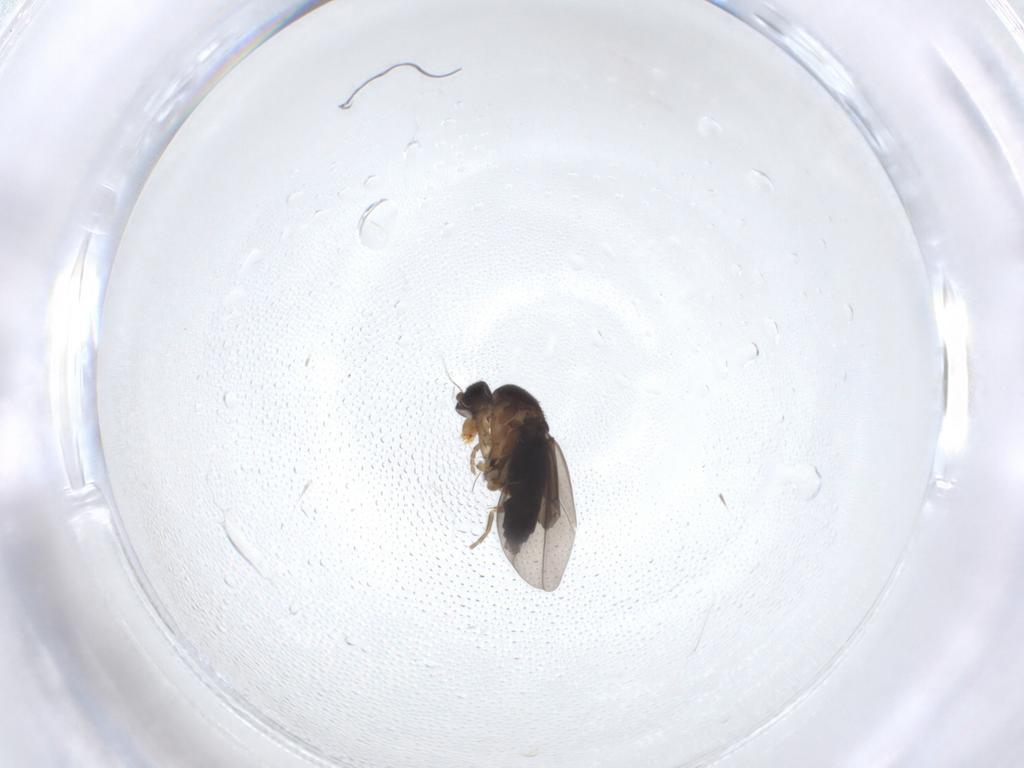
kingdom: Animalia
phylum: Arthropoda
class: Insecta
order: Diptera
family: Phoridae
